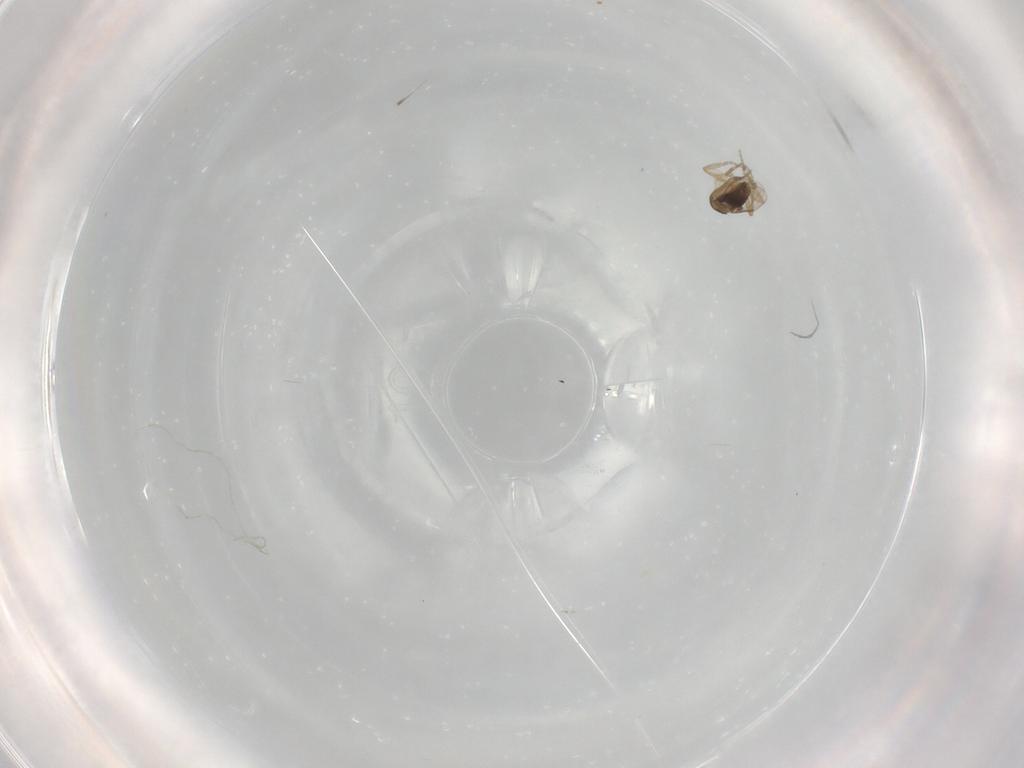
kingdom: Animalia
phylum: Arthropoda
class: Insecta
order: Diptera
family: Phoridae
